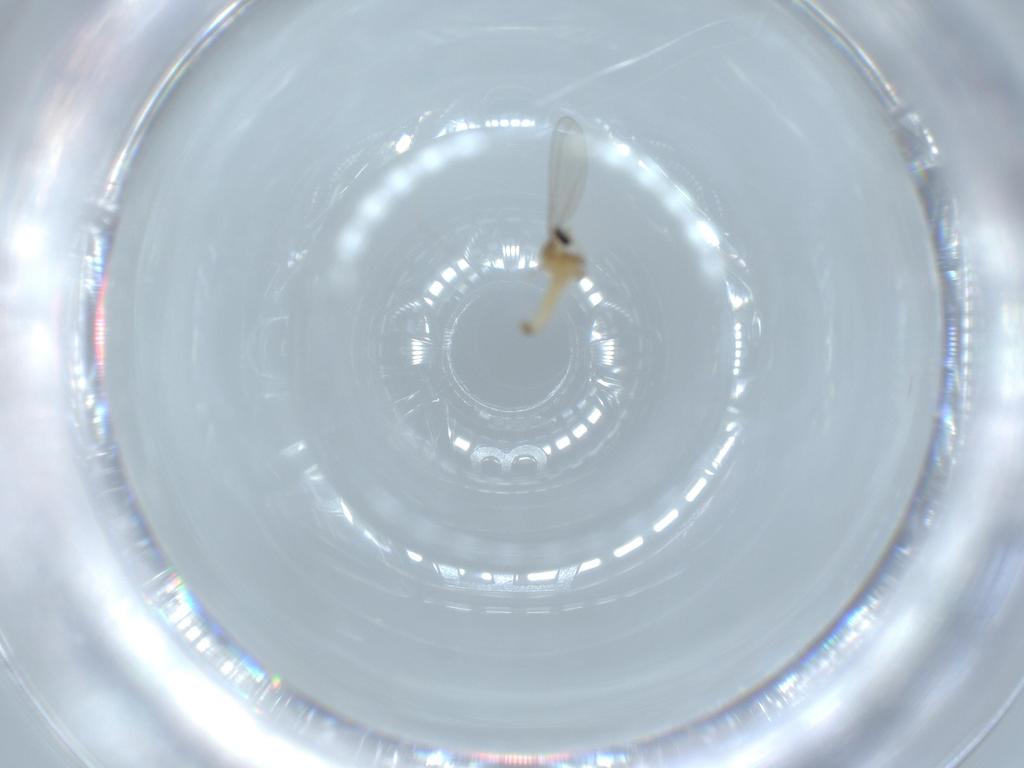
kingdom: Animalia
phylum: Arthropoda
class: Insecta
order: Diptera
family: Cecidomyiidae
